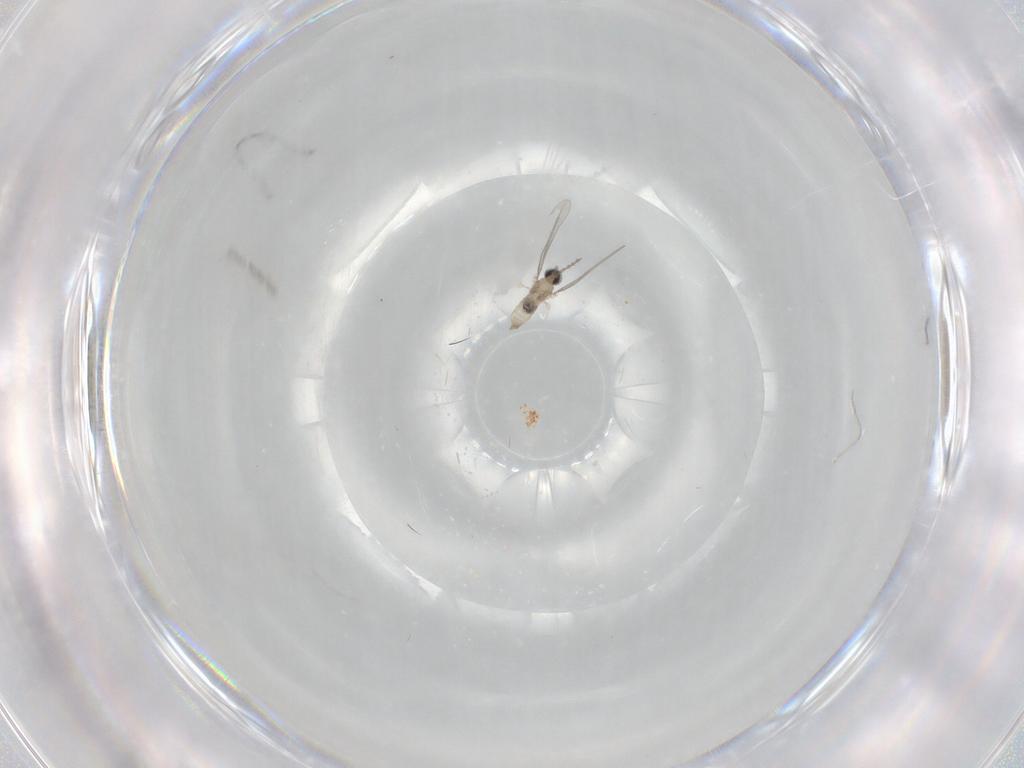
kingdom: Animalia
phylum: Arthropoda
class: Insecta
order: Diptera
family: Cecidomyiidae
